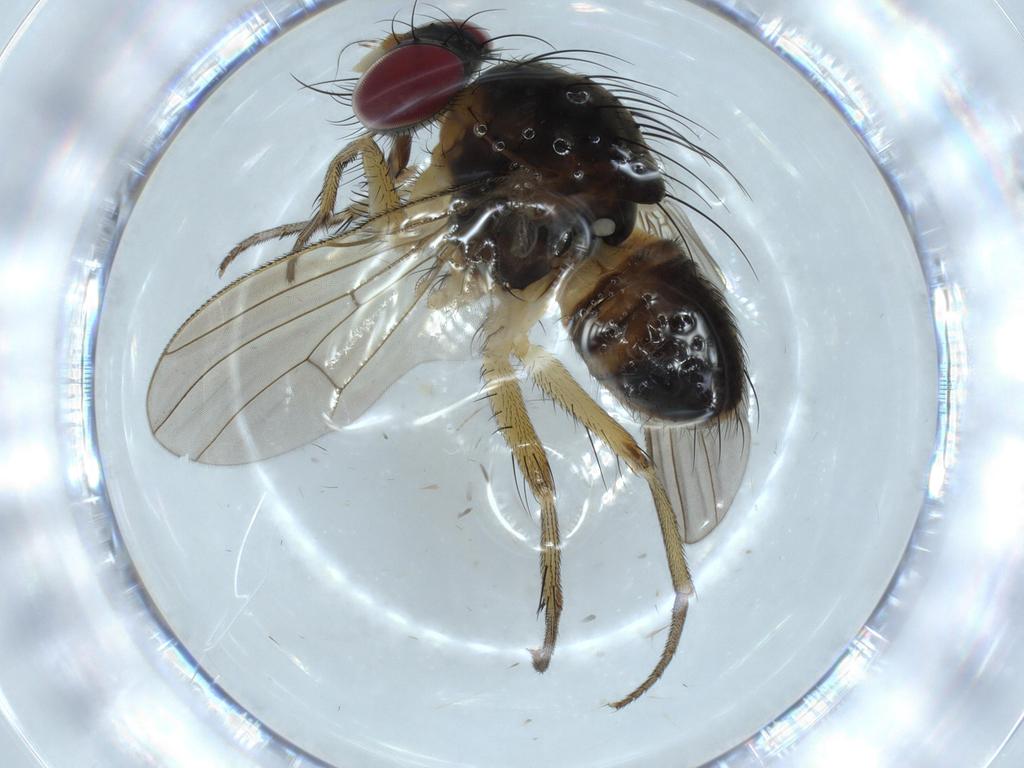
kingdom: Animalia
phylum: Arthropoda
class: Insecta
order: Diptera
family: Muscidae
